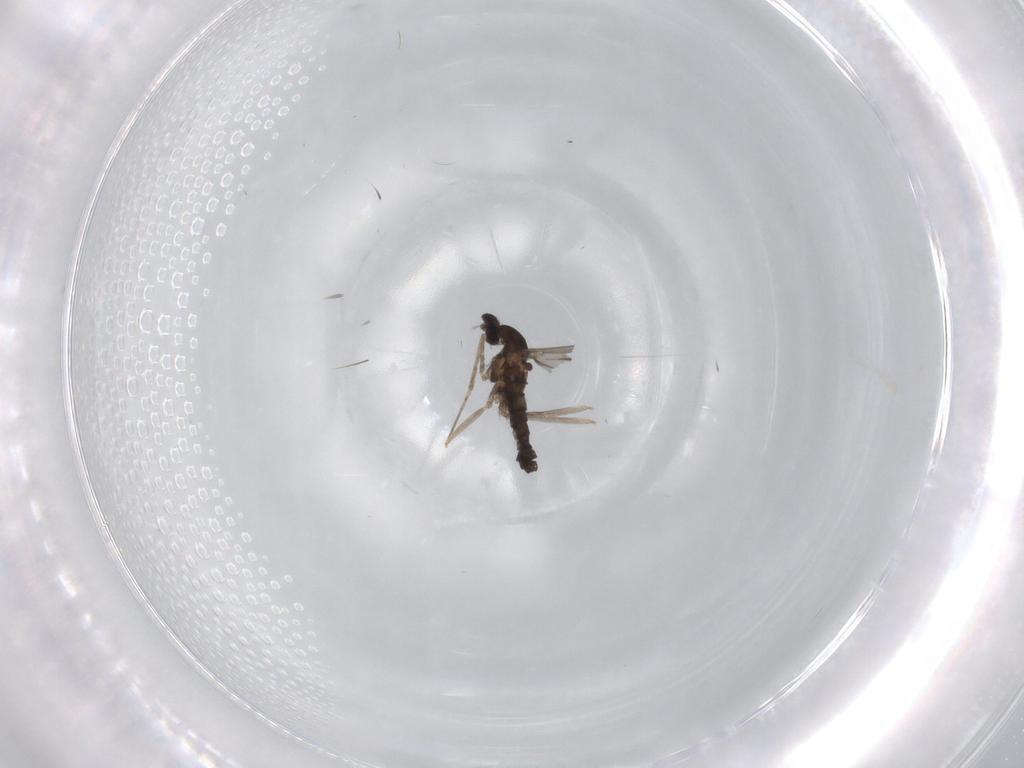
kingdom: Animalia
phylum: Arthropoda
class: Insecta
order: Diptera
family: Cecidomyiidae
